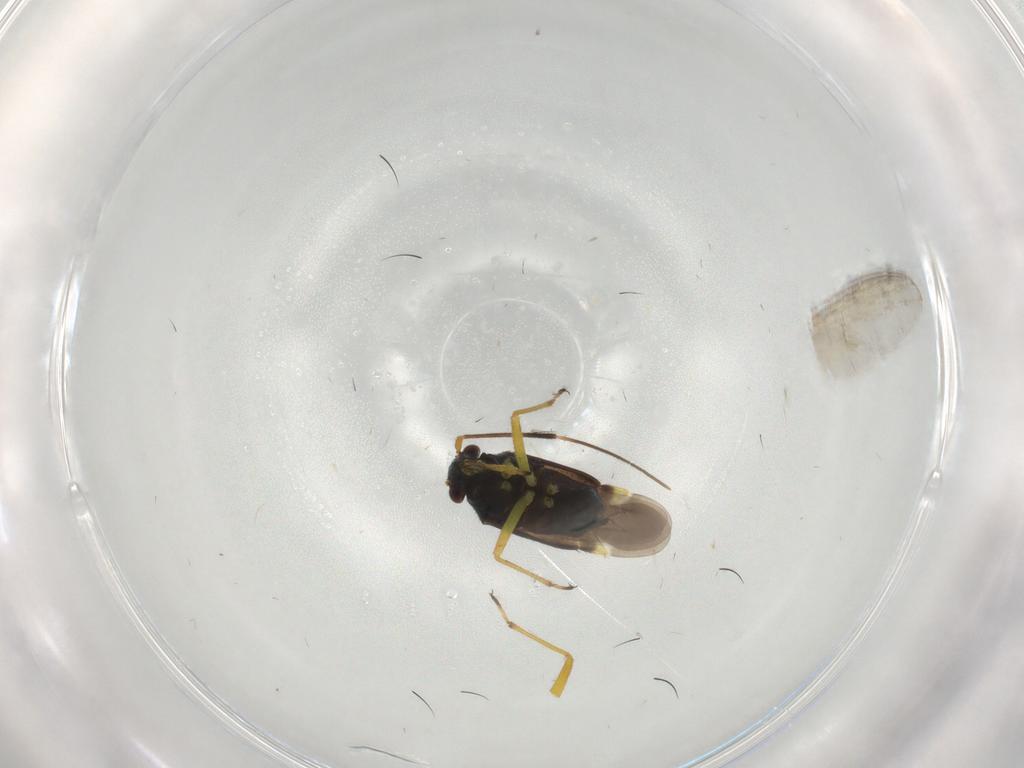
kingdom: Animalia
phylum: Arthropoda
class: Insecta
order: Hemiptera
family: Miridae
